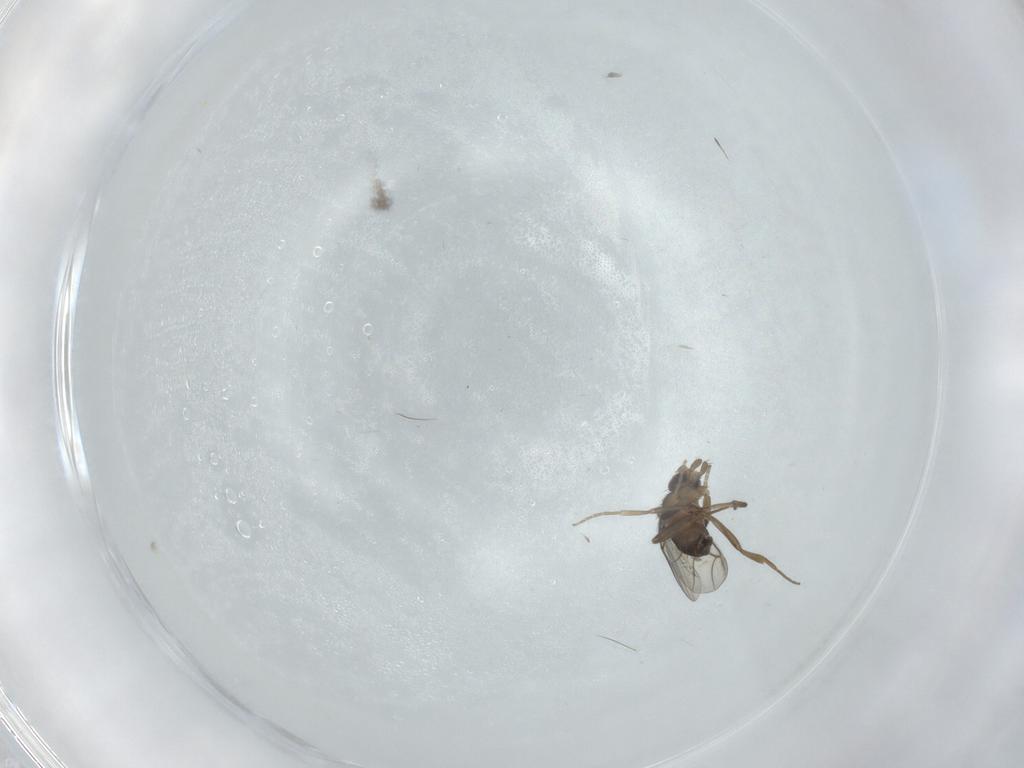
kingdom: Animalia
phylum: Arthropoda
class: Insecta
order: Diptera
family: Phoridae
